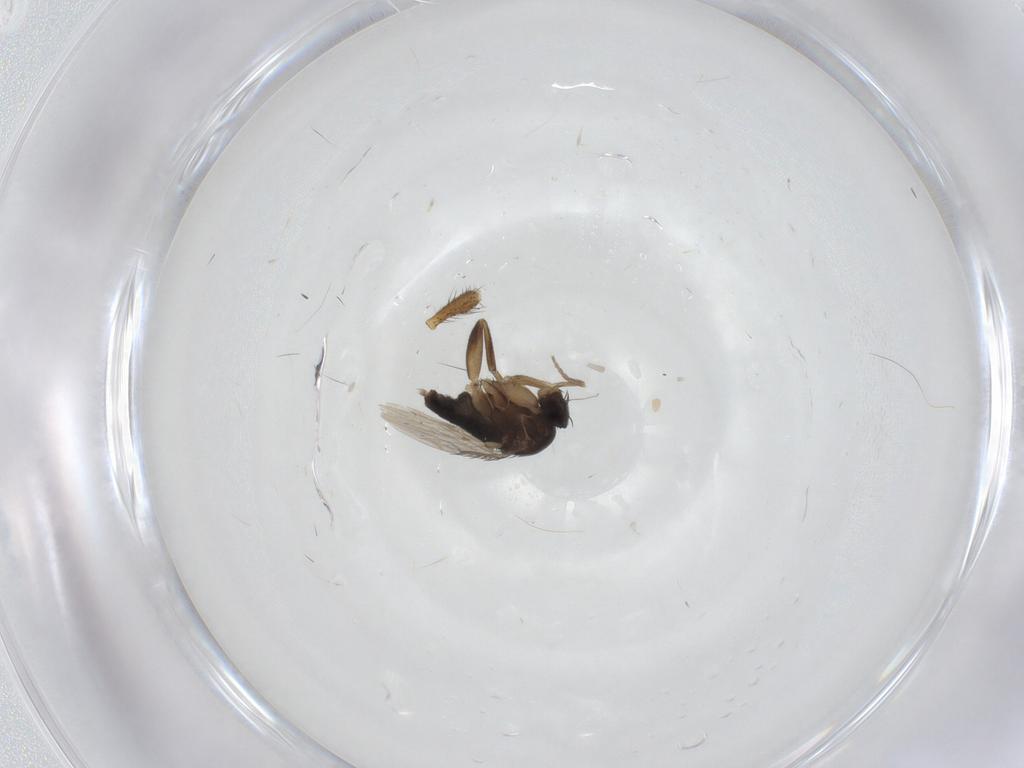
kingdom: Animalia
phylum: Arthropoda
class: Insecta
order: Diptera
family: Phoridae
